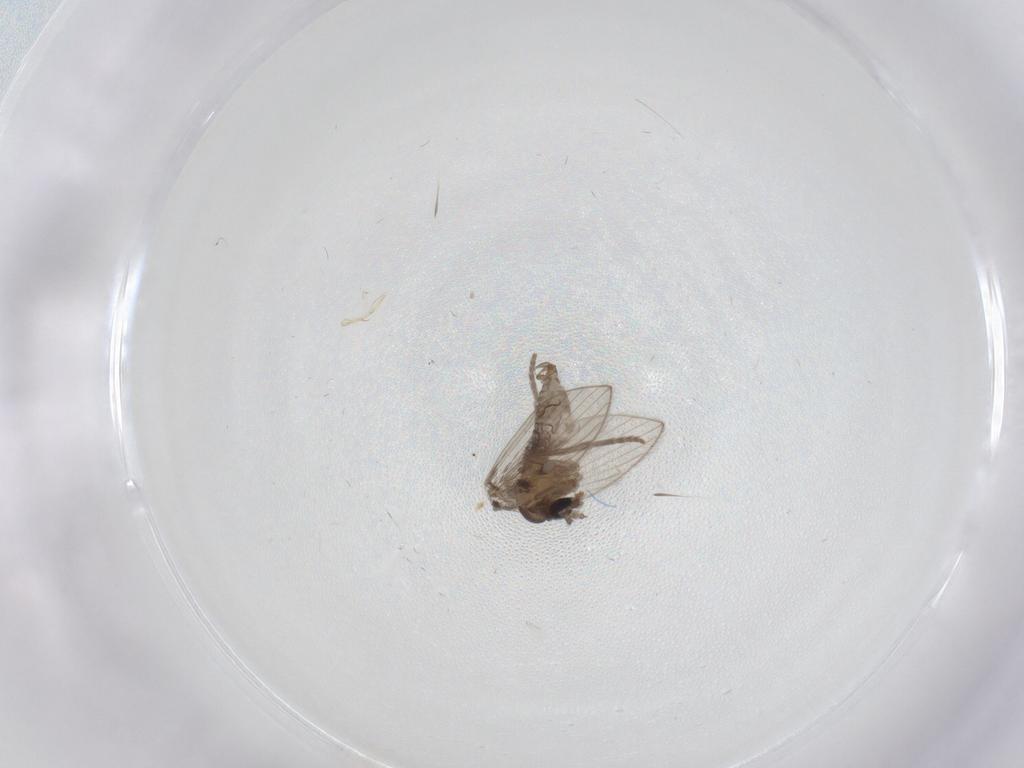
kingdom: Animalia
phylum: Arthropoda
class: Insecta
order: Diptera
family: Psychodidae
